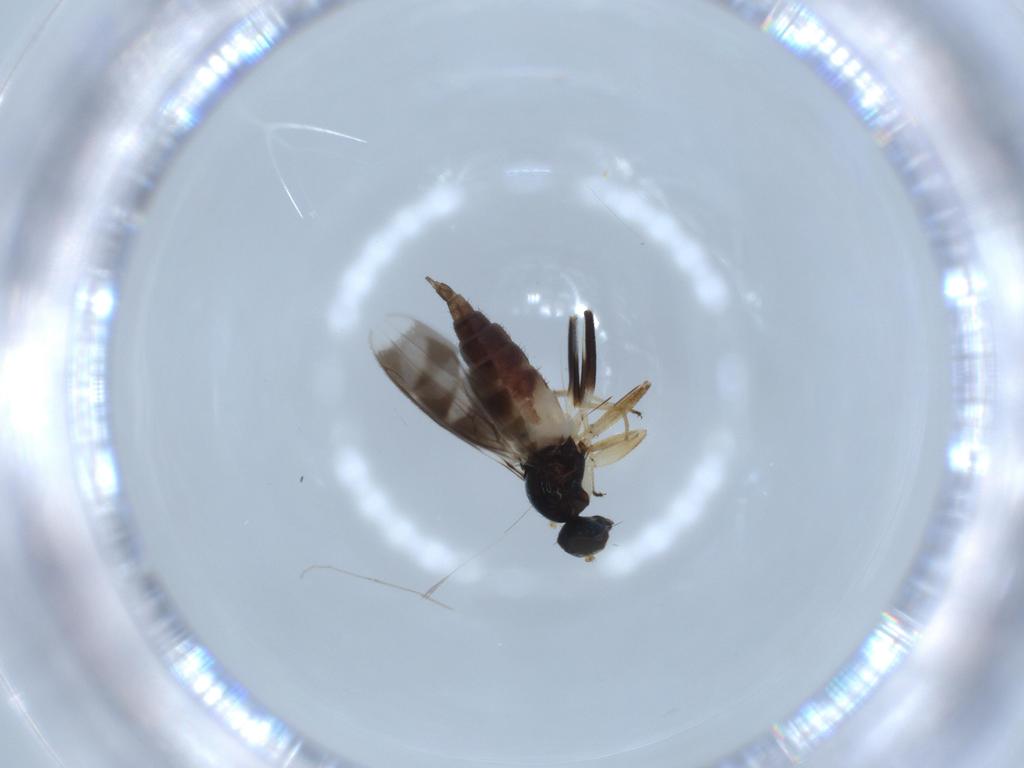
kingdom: Animalia
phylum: Arthropoda
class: Insecta
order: Diptera
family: Hybotidae
